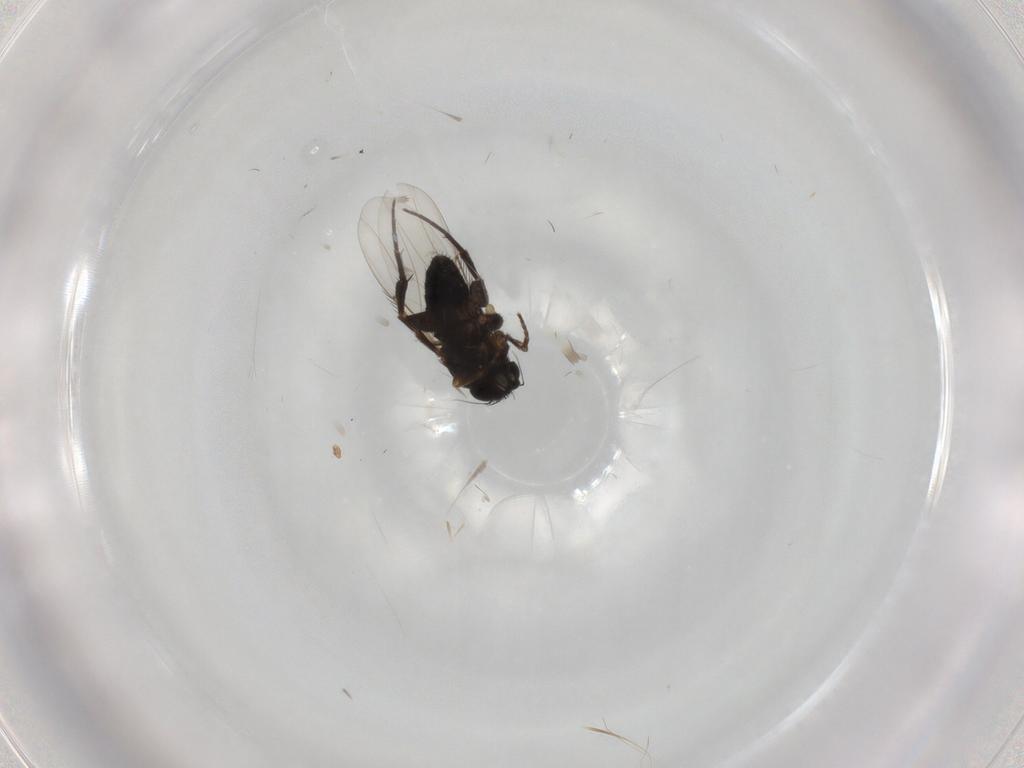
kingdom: Animalia
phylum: Arthropoda
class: Insecta
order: Diptera
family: Phoridae
